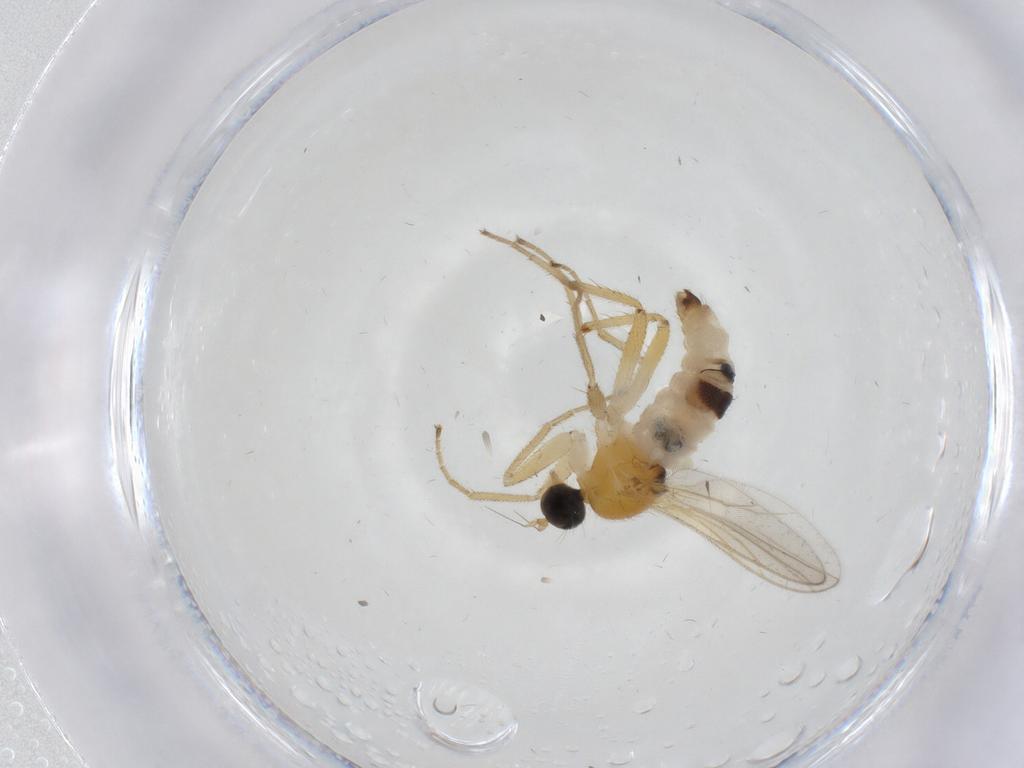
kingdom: Animalia
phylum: Arthropoda
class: Insecta
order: Diptera
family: Hybotidae
